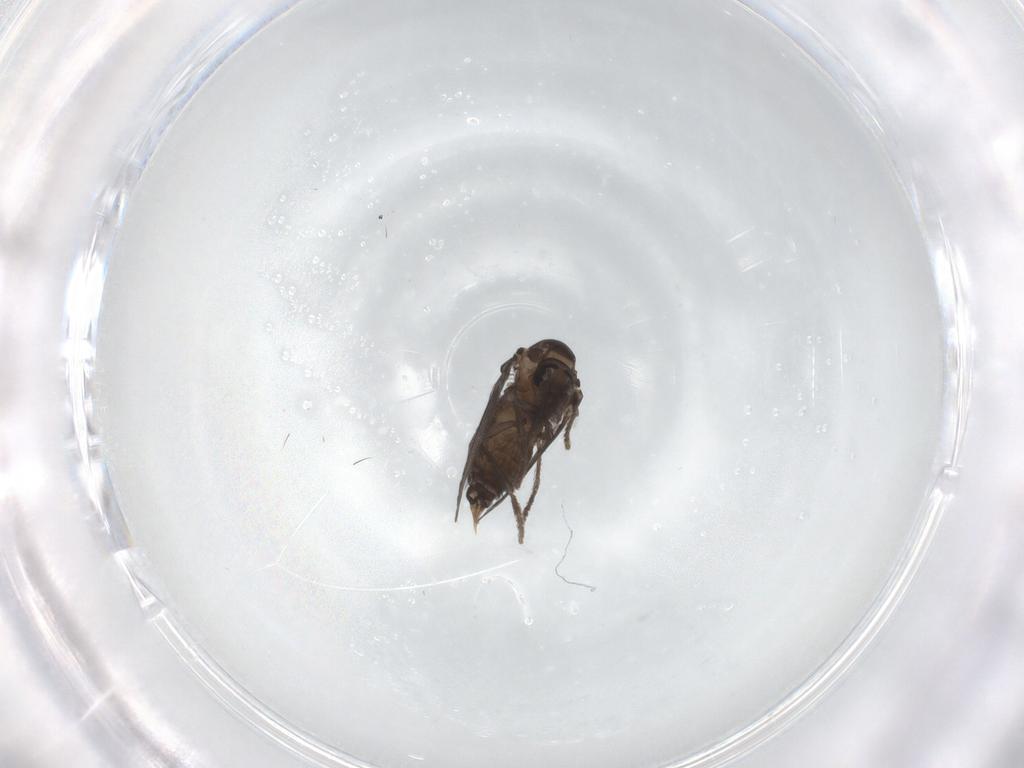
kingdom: Animalia
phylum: Arthropoda
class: Insecta
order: Diptera
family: Psychodidae
